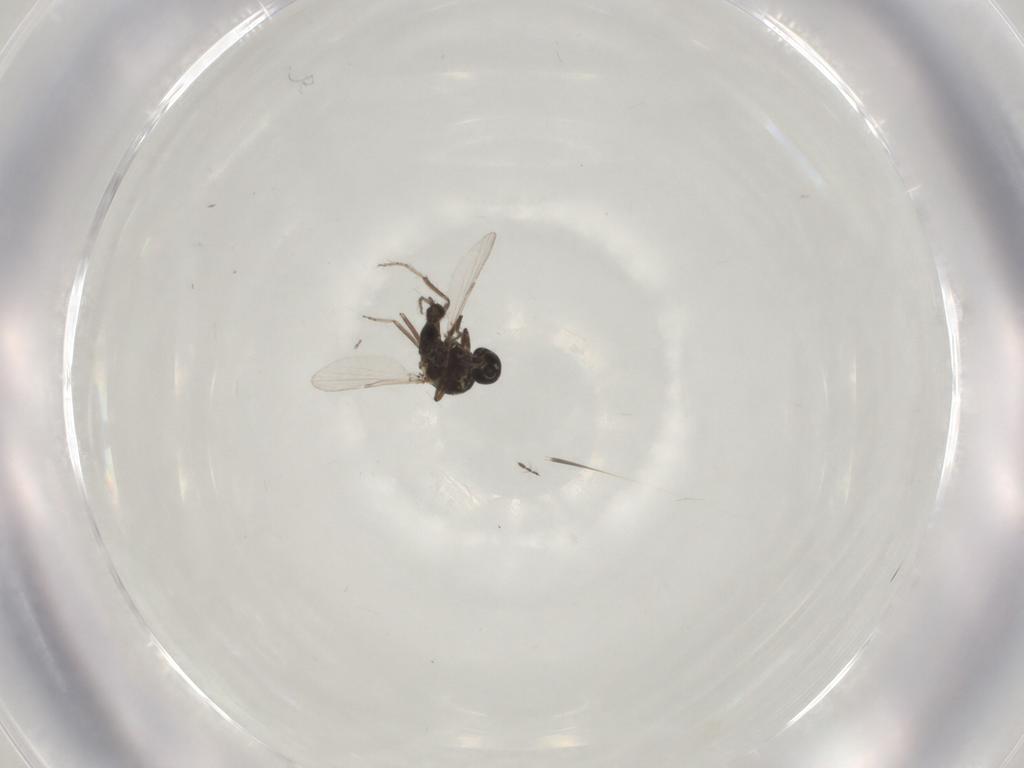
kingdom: Animalia
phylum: Arthropoda
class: Insecta
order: Diptera
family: Ceratopogonidae
